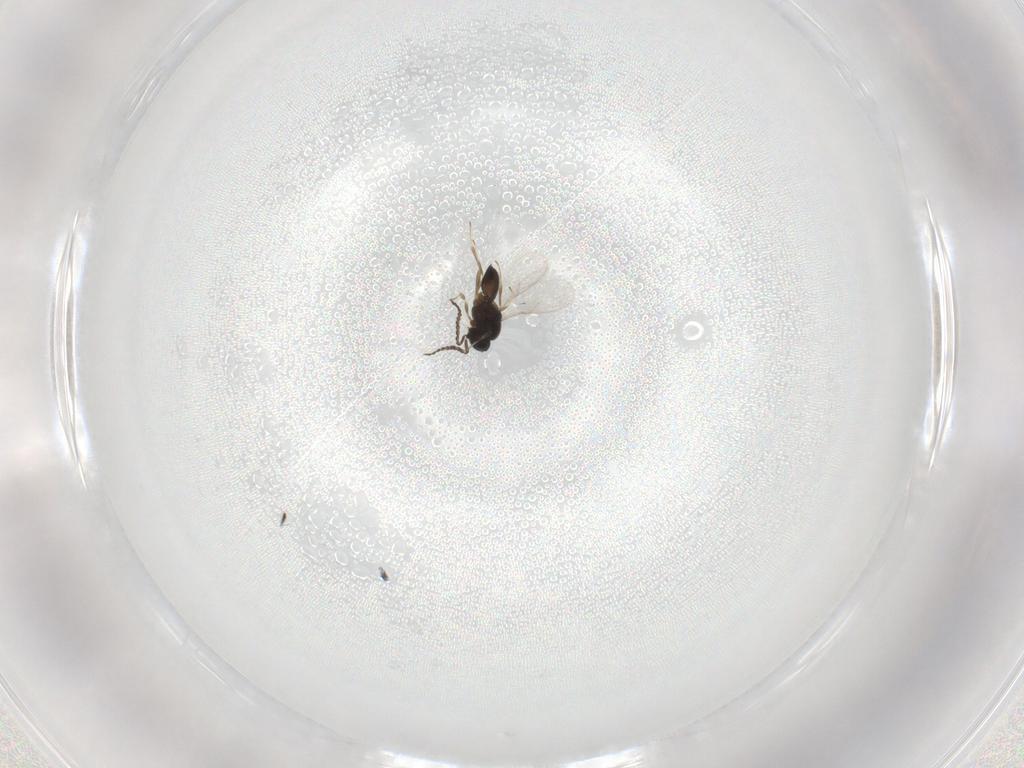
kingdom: Animalia
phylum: Arthropoda
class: Insecta
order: Hymenoptera
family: Scelionidae
